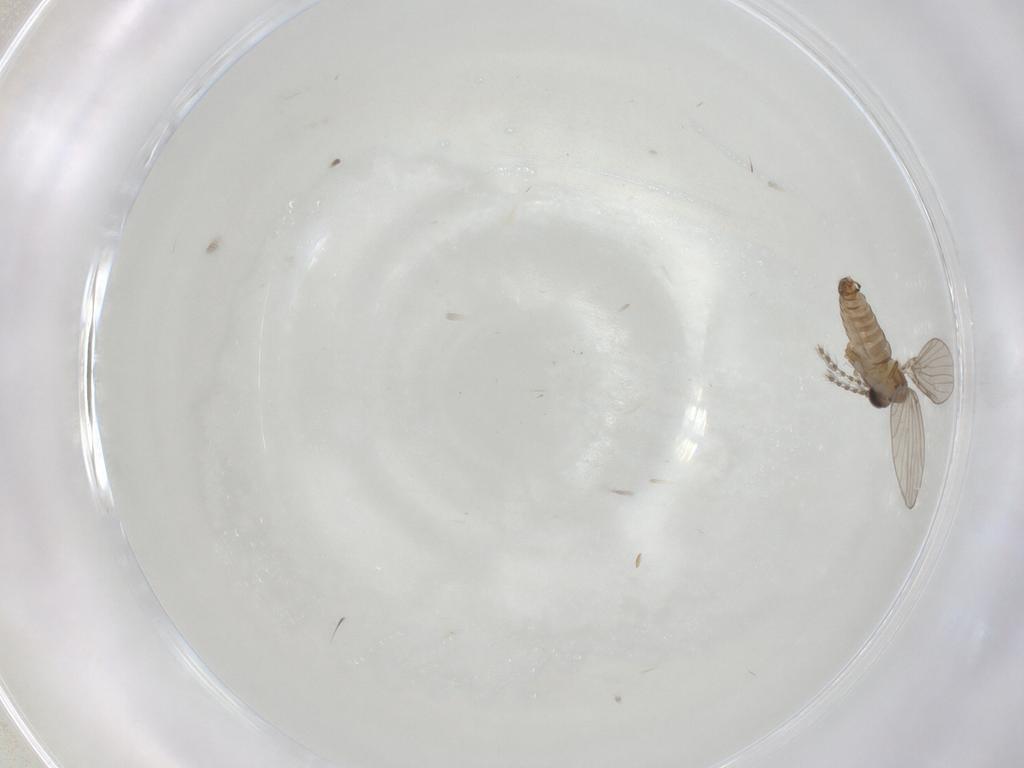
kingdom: Animalia
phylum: Arthropoda
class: Insecta
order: Diptera
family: Psychodidae
